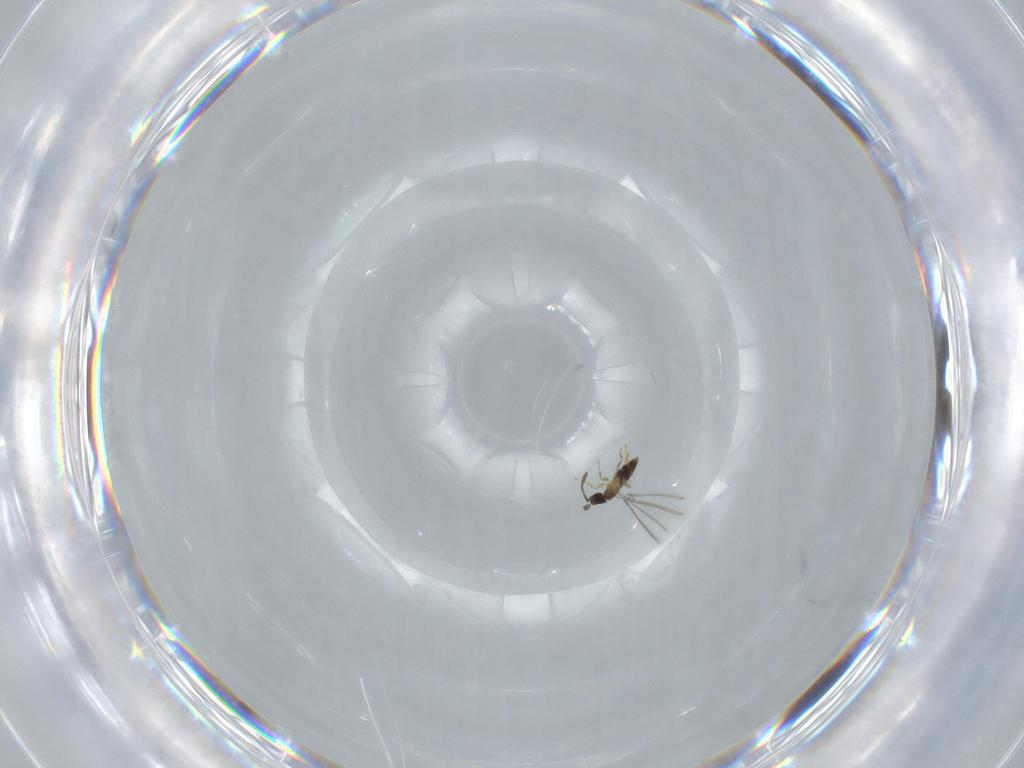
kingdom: Animalia
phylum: Arthropoda
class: Insecta
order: Hymenoptera
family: Mymaridae
